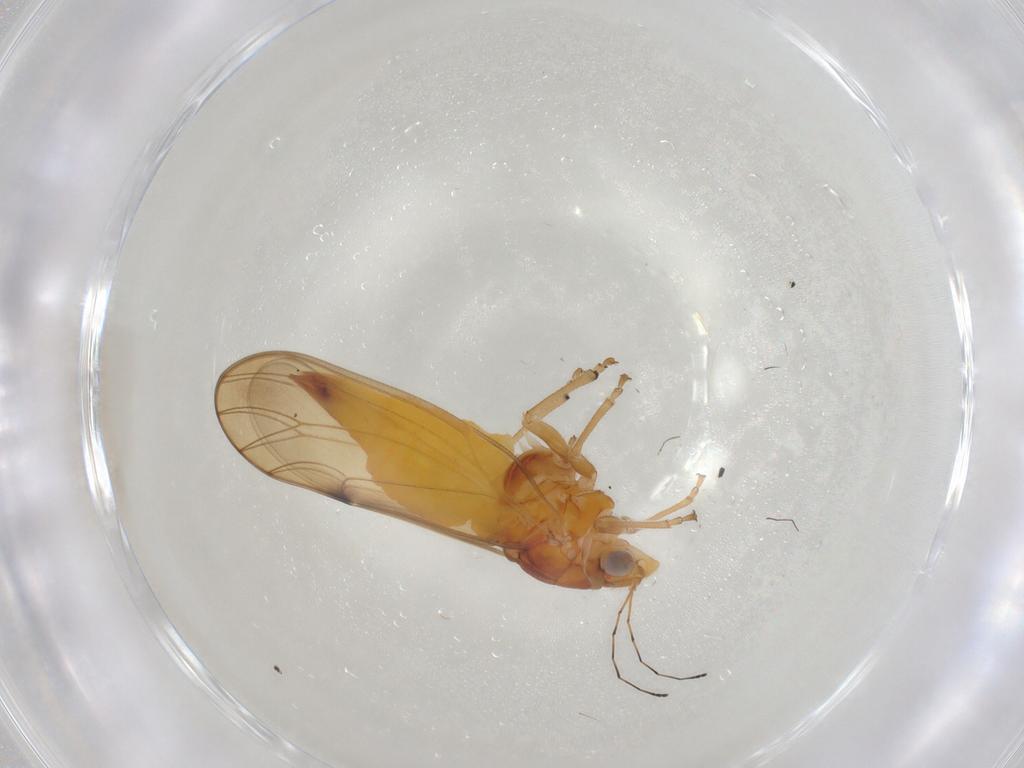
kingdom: Animalia
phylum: Arthropoda
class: Insecta
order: Hemiptera
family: Psylloidea_incertae_sedis
